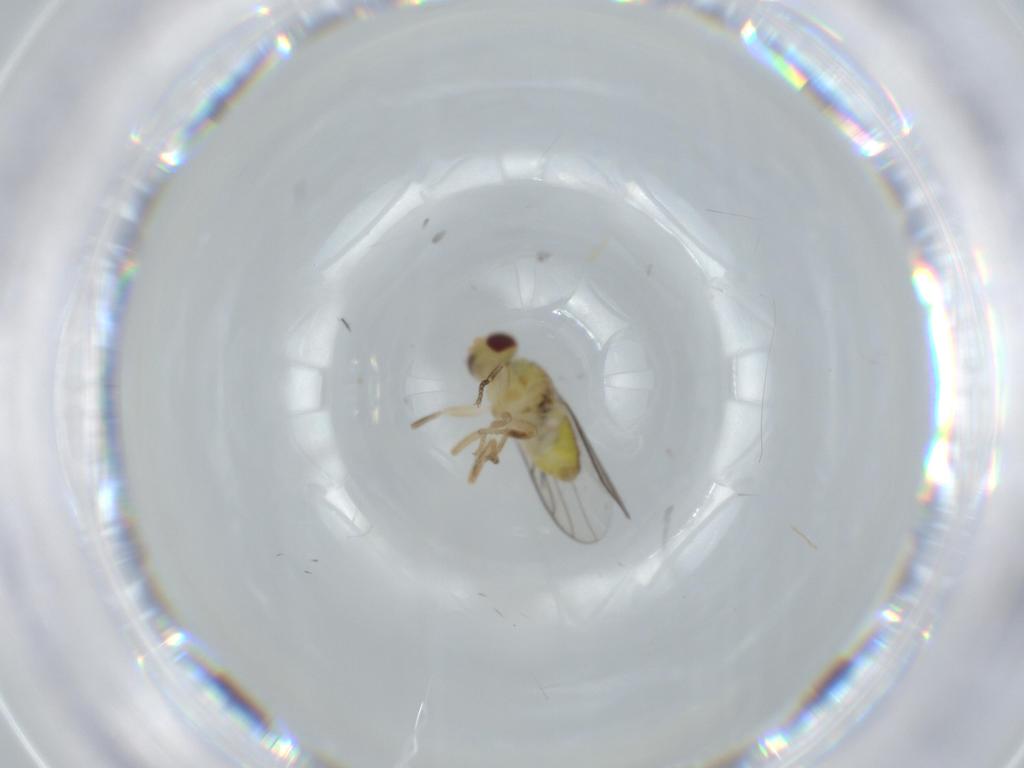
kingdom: Animalia
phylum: Arthropoda
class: Insecta
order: Diptera
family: Chloropidae
